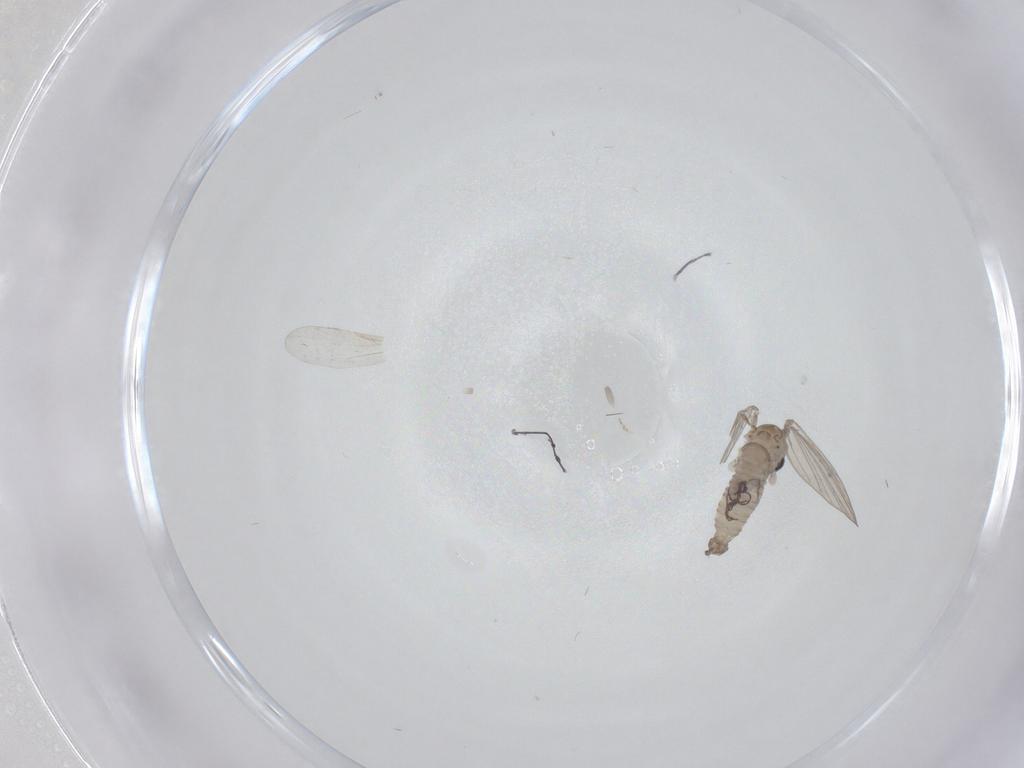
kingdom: Animalia
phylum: Arthropoda
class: Insecta
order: Diptera
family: Psychodidae
